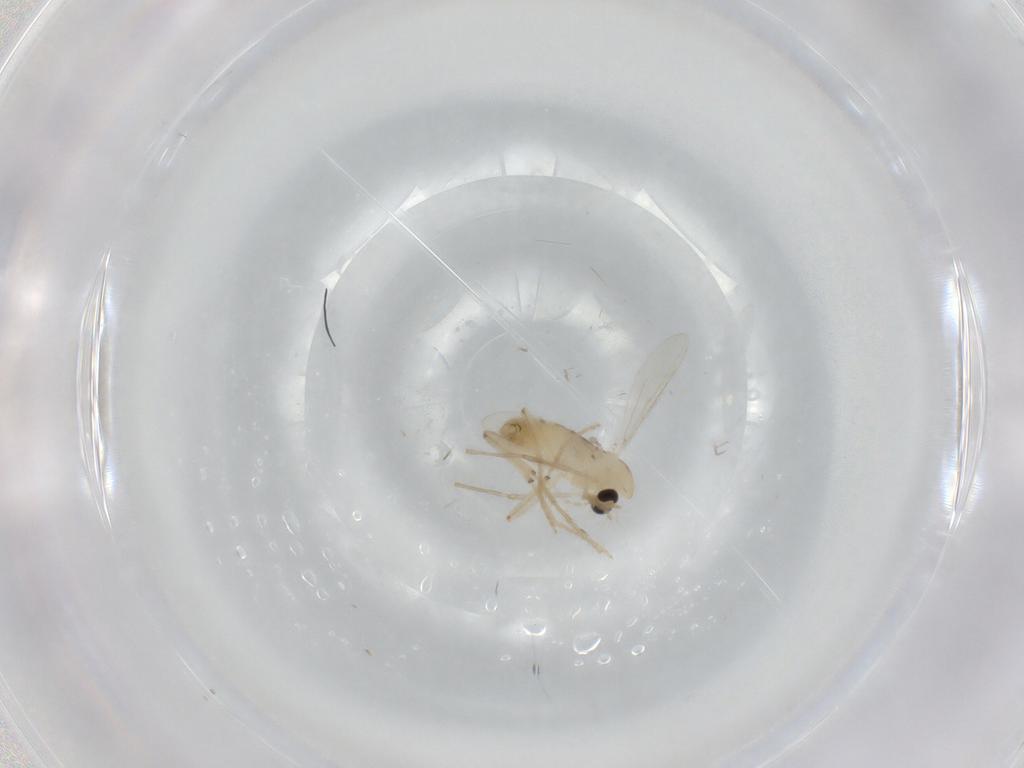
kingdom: Animalia
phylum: Arthropoda
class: Insecta
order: Diptera
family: Chironomidae
